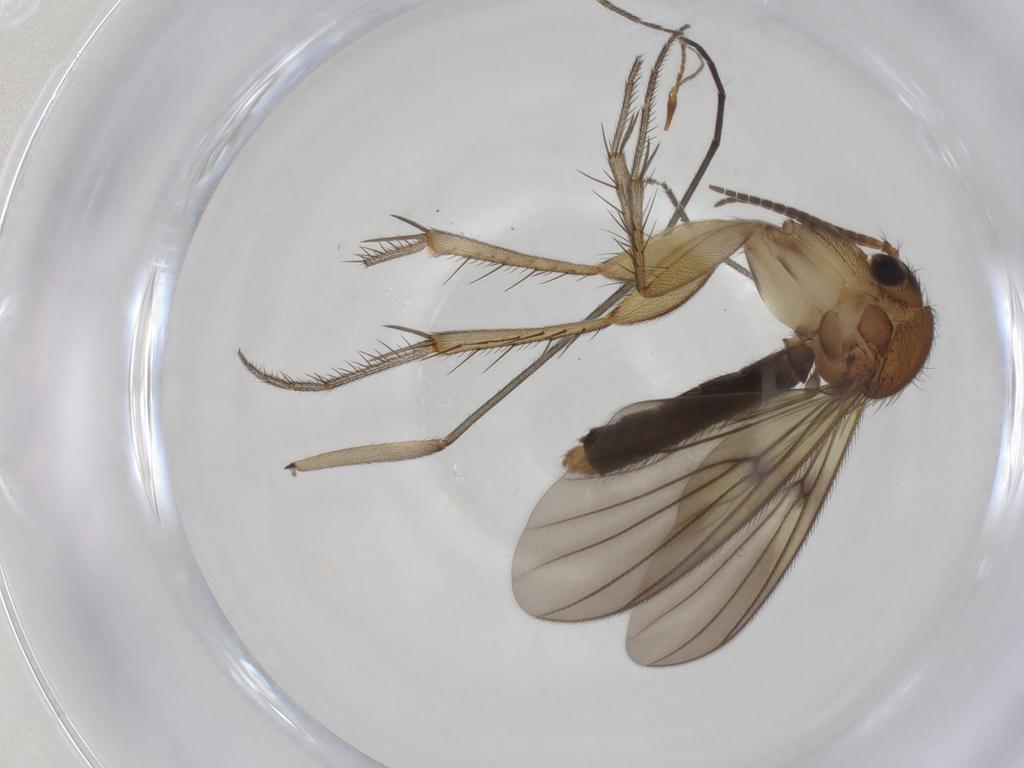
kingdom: Animalia
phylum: Arthropoda
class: Insecta
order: Diptera
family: Sciaridae
